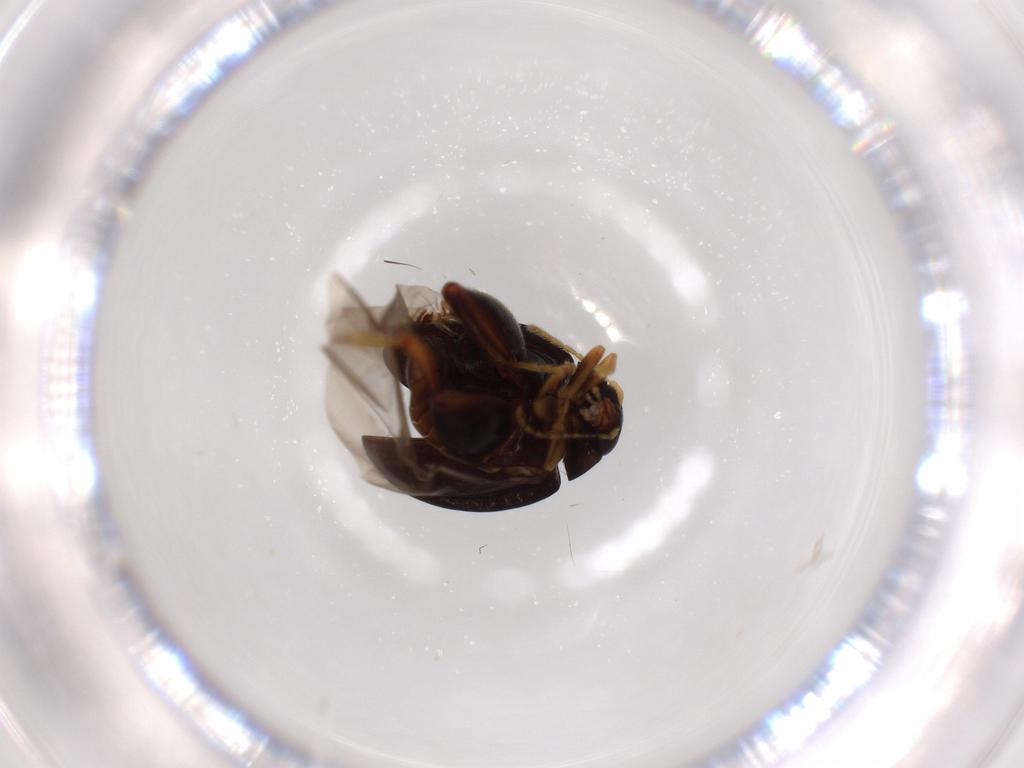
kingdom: Animalia
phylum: Arthropoda
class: Insecta
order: Coleoptera
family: Chrysomelidae
